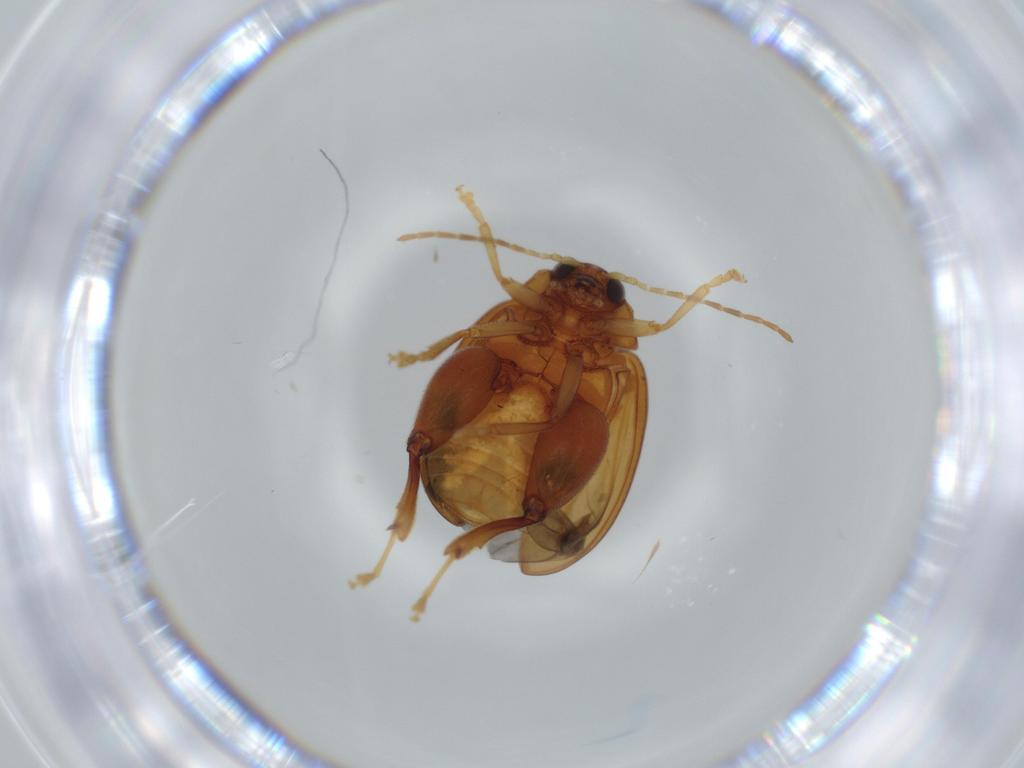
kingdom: Animalia
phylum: Arthropoda
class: Insecta
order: Coleoptera
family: Chrysomelidae
